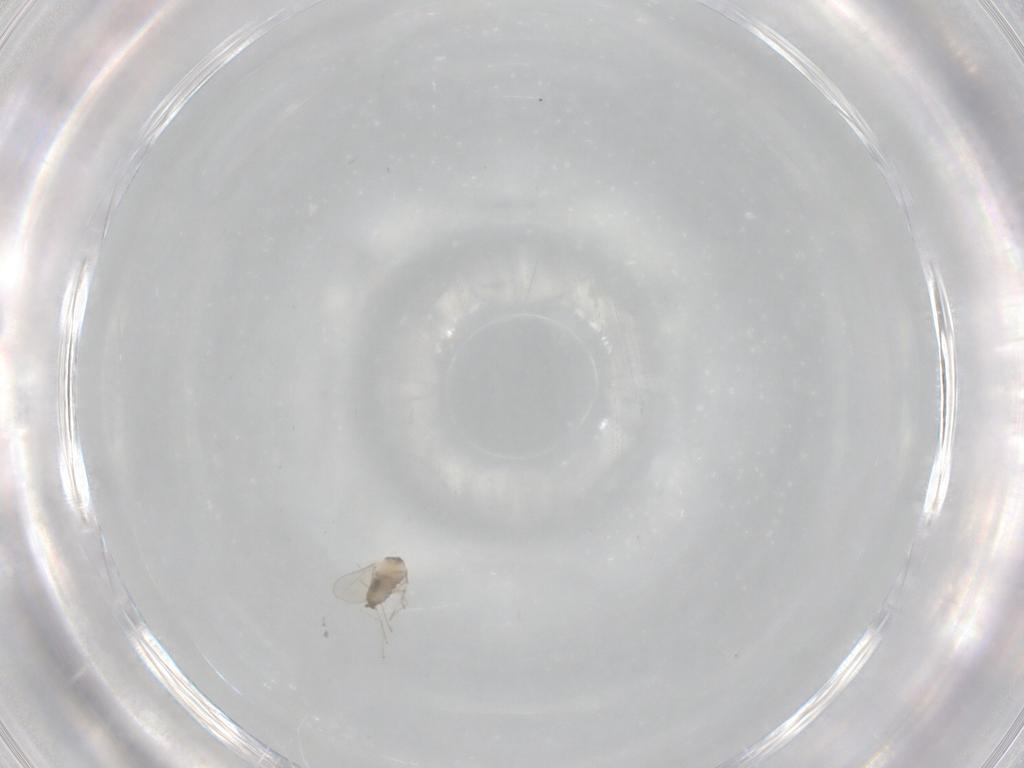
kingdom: Animalia
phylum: Arthropoda
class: Insecta
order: Diptera
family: Cecidomyiidae
